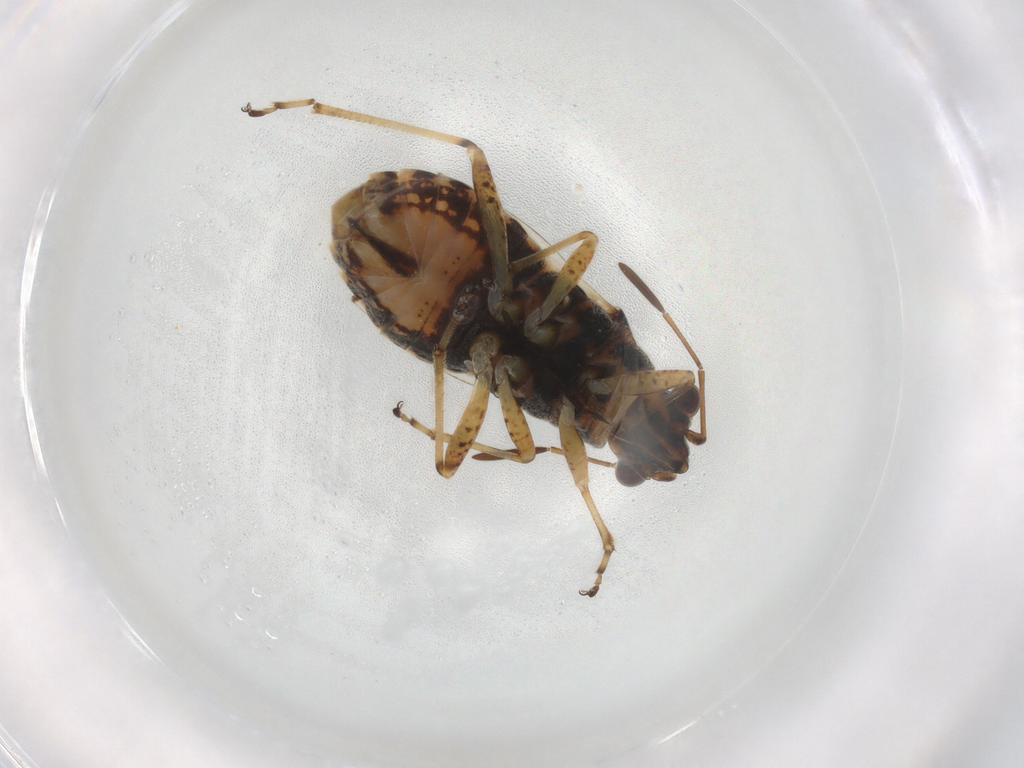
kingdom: Animalia
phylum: Arthropoda
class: Insecta
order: Hemiptera
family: Lygaeidae
